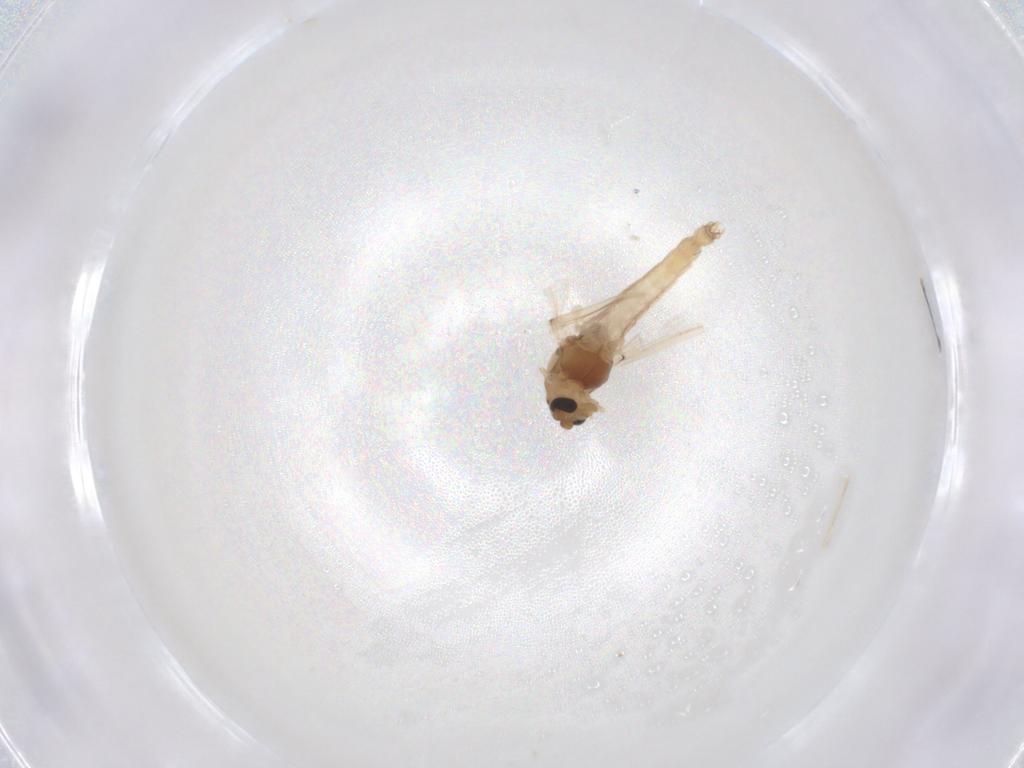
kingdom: Animalia
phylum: Arthropoda
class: Insecta
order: Diptera
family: Chironomidae
